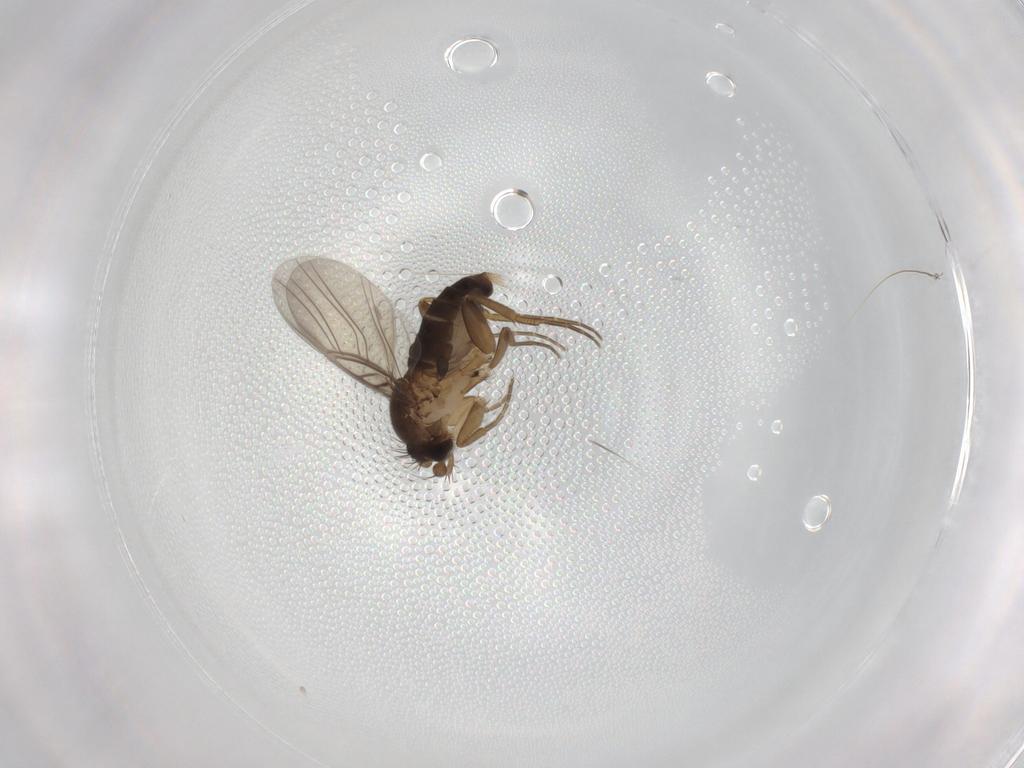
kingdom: Animalia
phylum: Arthropoda
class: Insecta
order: Diptera
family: Phoridae
